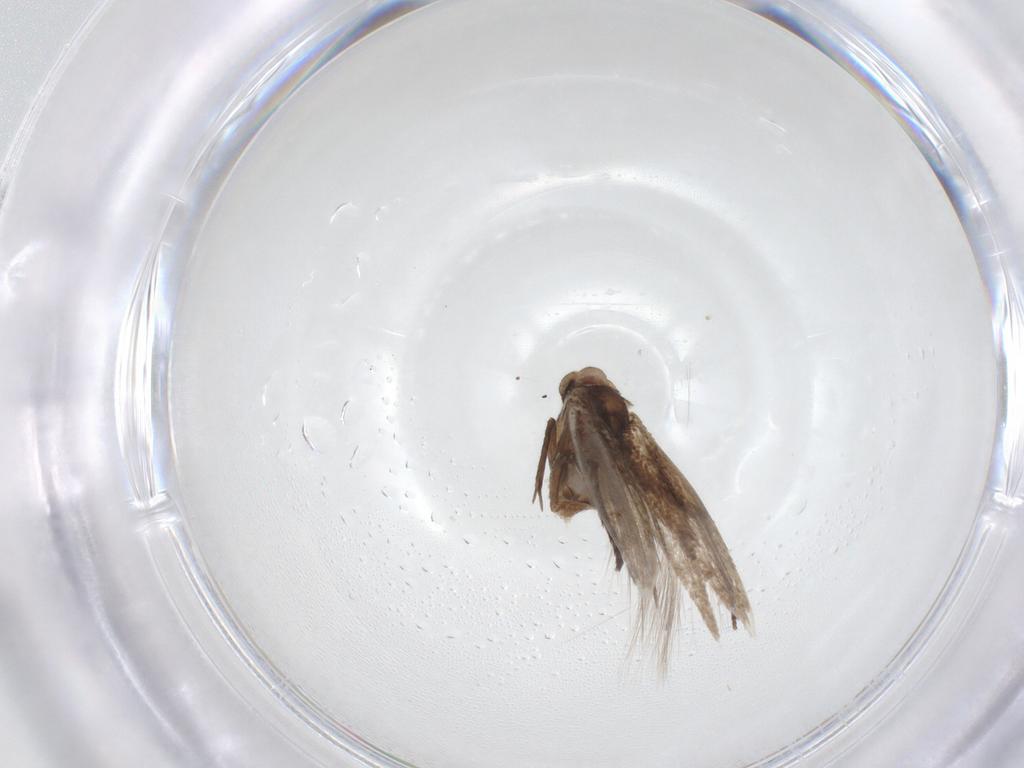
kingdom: Animalia
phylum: Arthropoda
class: Insecta
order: Lepidoptera
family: Bucculatricidae
